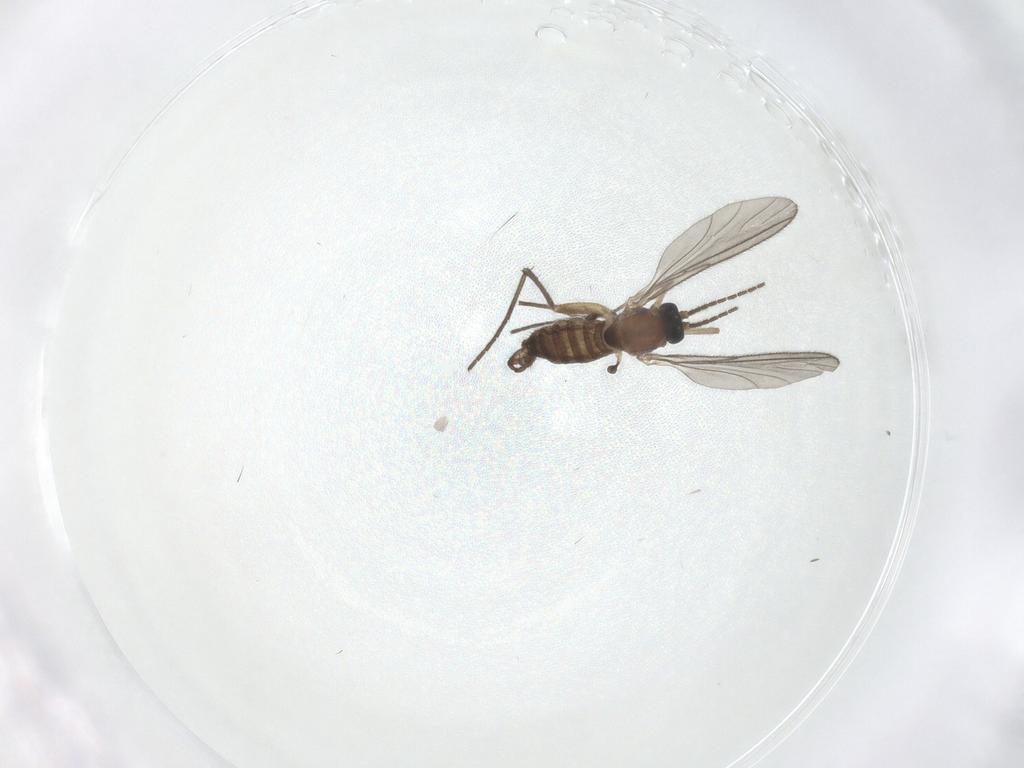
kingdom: Animalia
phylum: Arthropoda
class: Insecta
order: Diptera
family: Sciaridae
